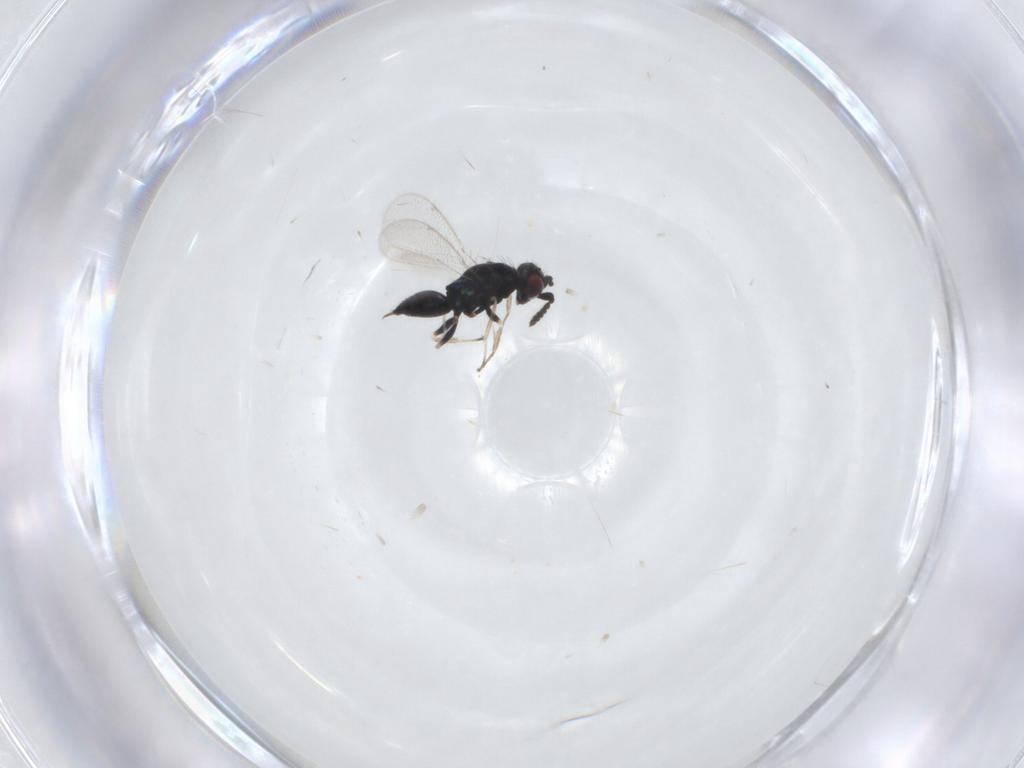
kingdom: Animalia
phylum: Arthropoda
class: Insecta
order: Hymenoptera
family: Eulophidae
